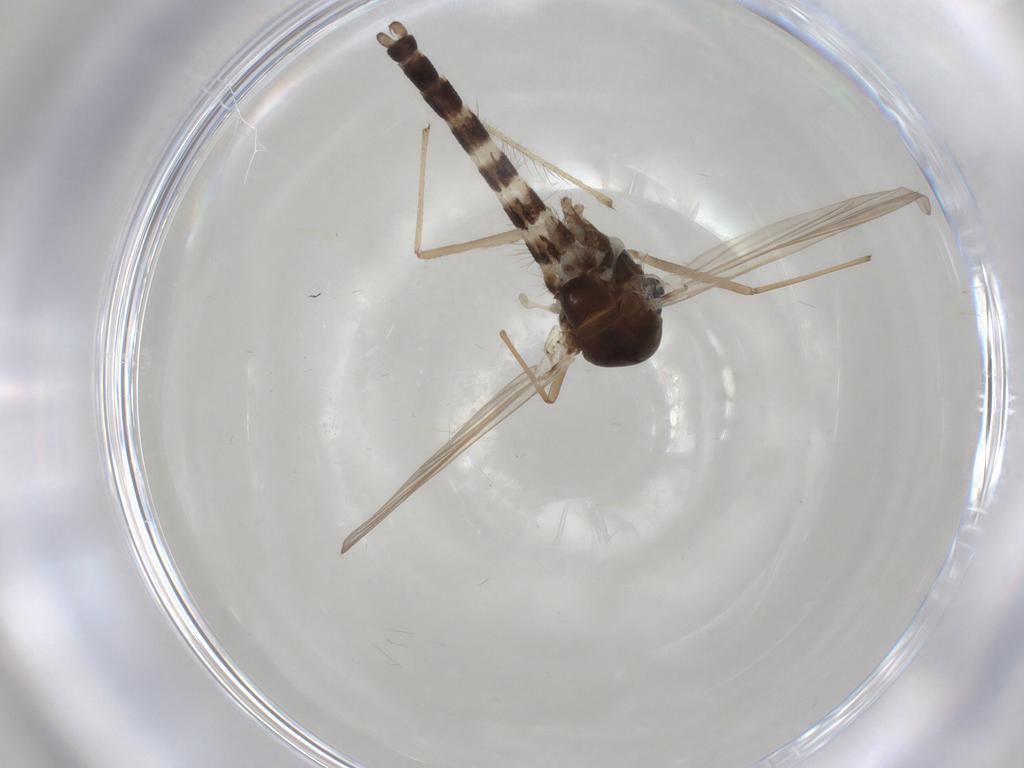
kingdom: Animalia
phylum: Arthropoda
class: Insecta
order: Diptera
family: Chironomidae
